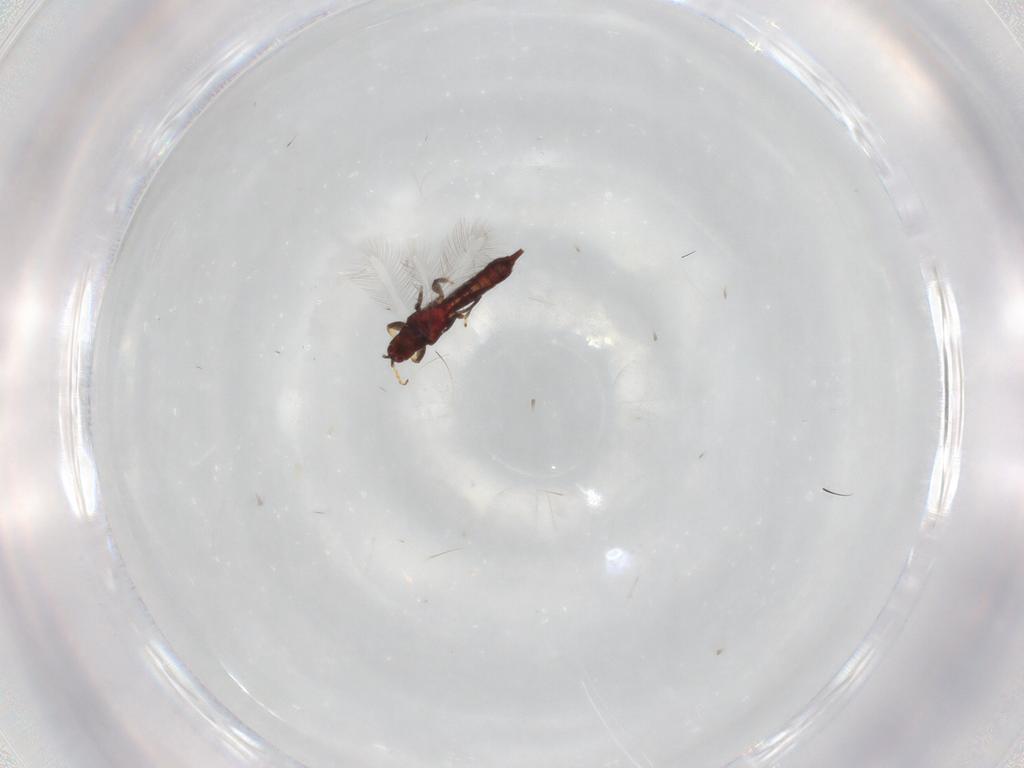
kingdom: Animalia
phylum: Arthropoda
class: Insecta
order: Thysanoptera
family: Phlaeothripidae
